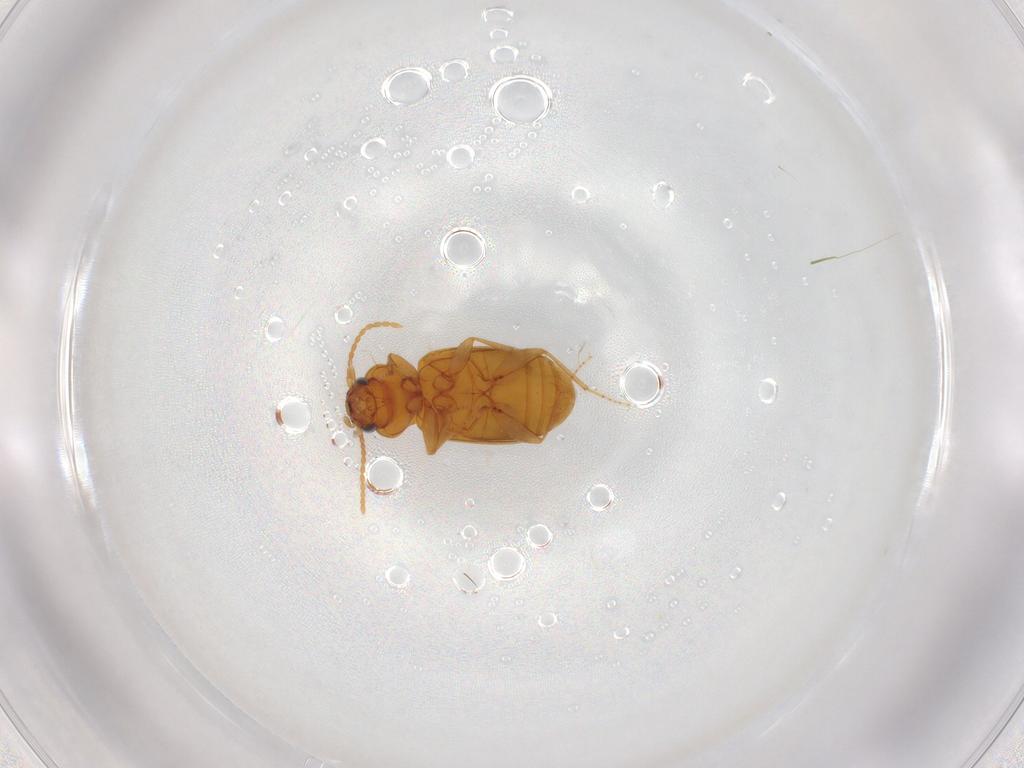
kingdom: Animalia
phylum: Arthropoda
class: Insecta
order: Coleoptera
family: Carabidae
